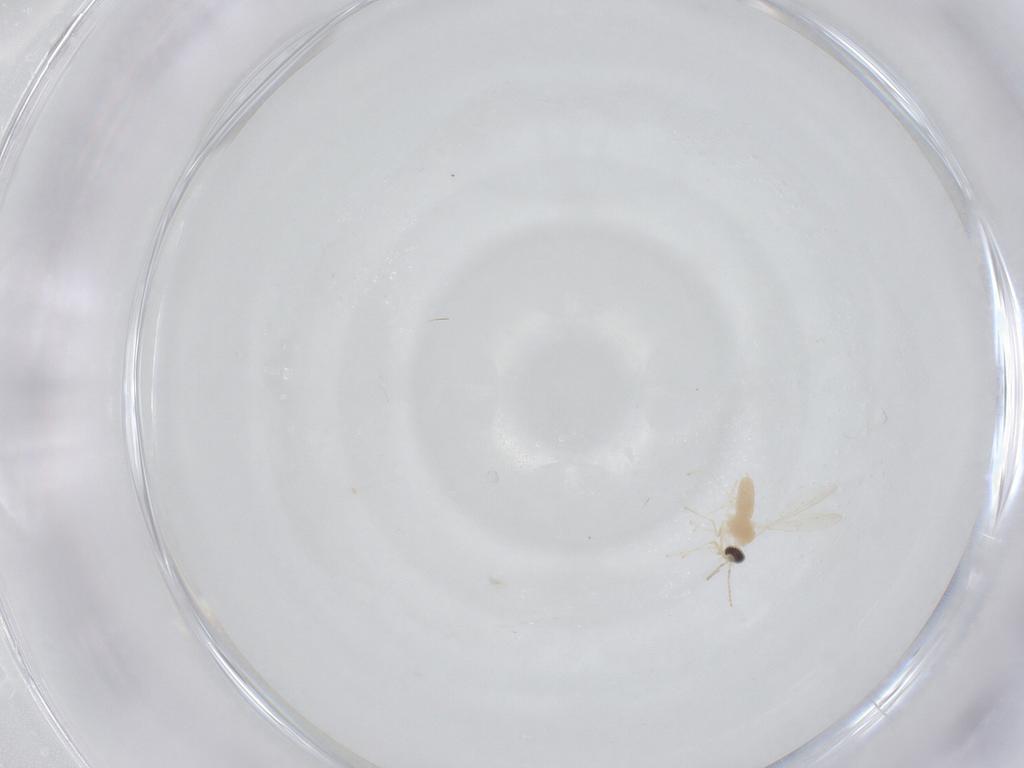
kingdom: Animalia
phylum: Arthropoda
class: Insecta
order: Diptera
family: Cecidomyiidae
